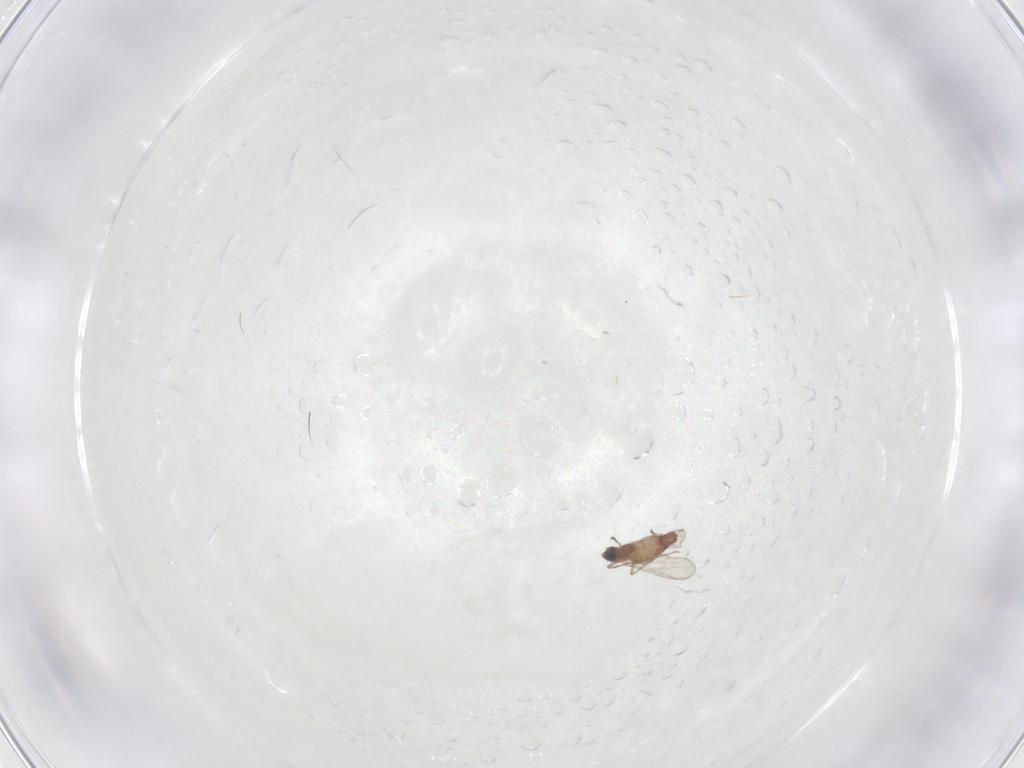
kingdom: Animalia
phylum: Arthropoda
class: Insecta
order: Diptera
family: Chironomidae
